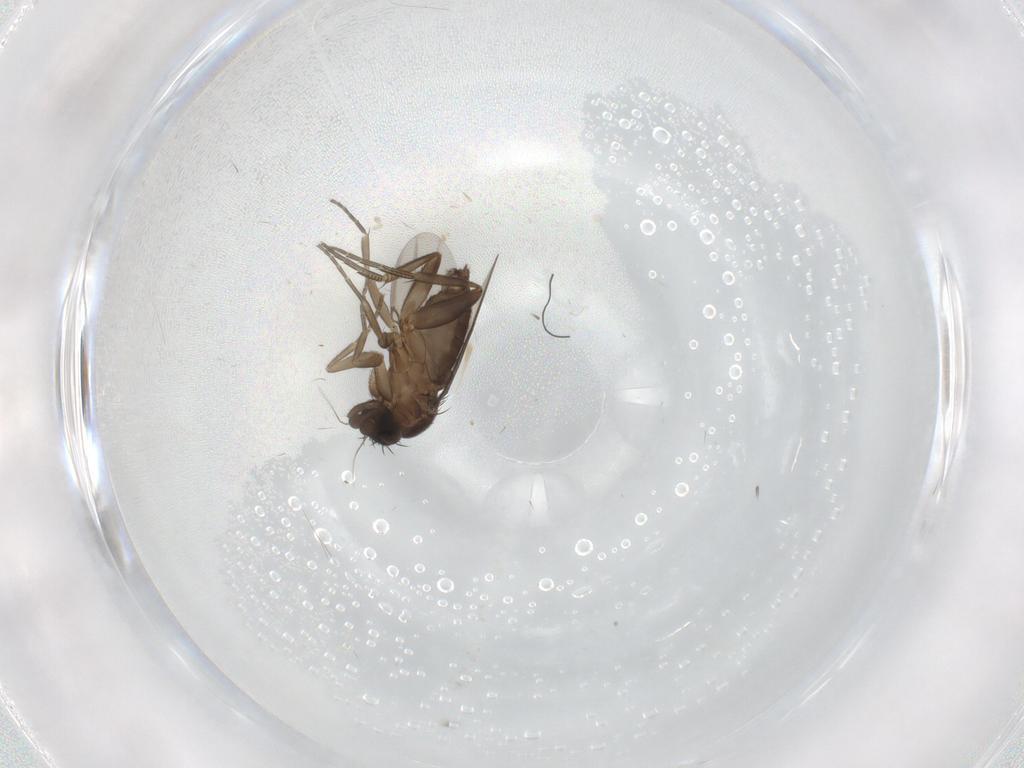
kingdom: Animalia
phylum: Arthropoda
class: Insecta
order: Diptera
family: Phoridae
